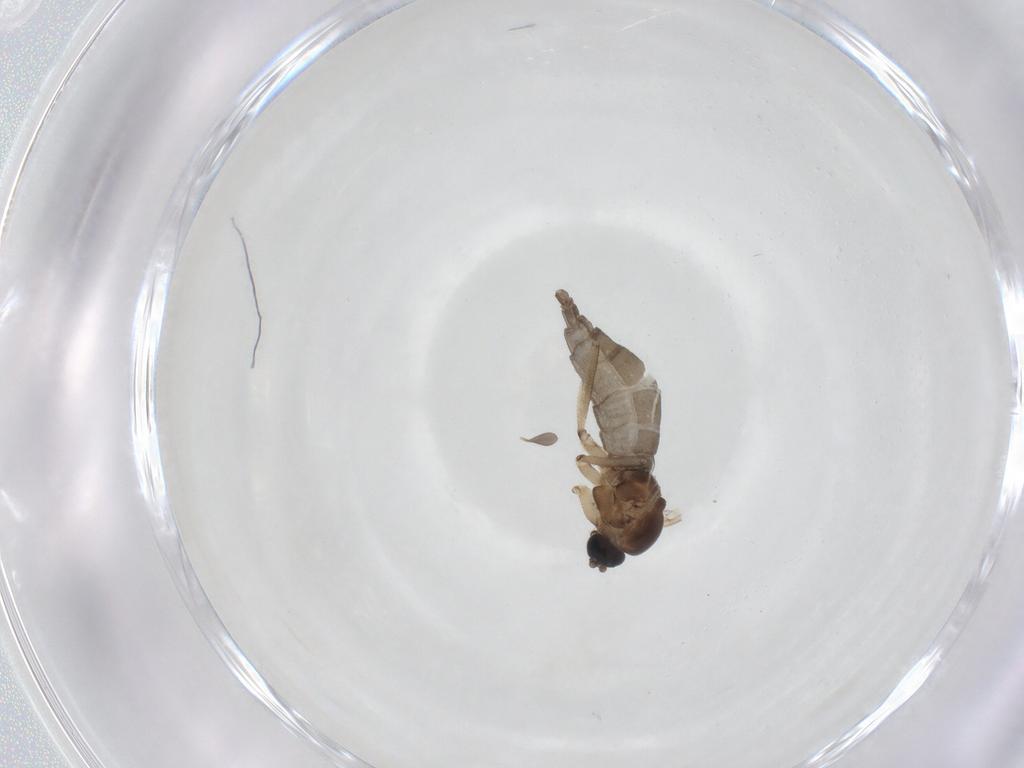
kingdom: Animalia
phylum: Arthropoda
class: Insecta
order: Diptera
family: Sciaridae
